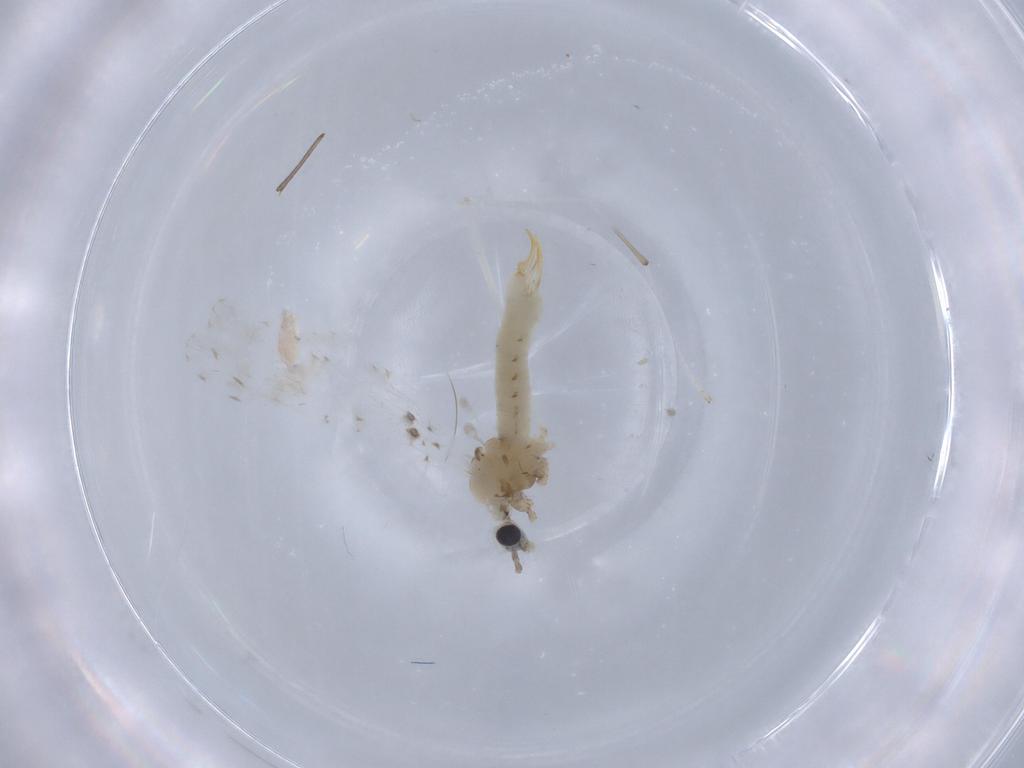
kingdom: Animalia
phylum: Arthropoda
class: Insecta
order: Diptera
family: Limoniidae
